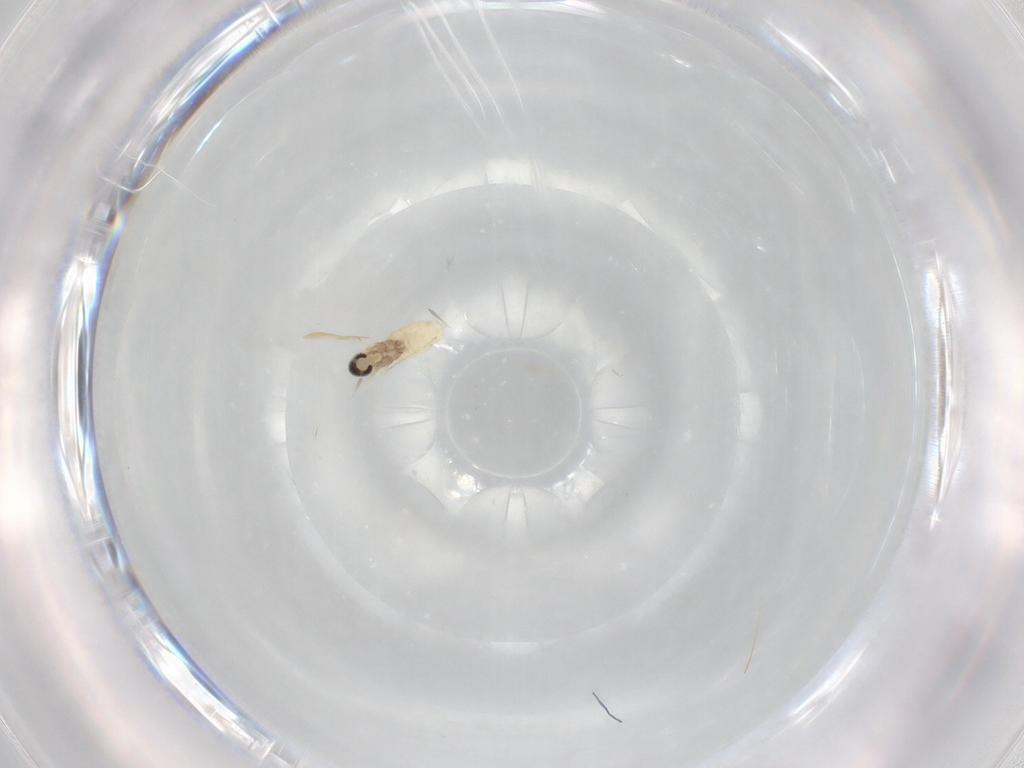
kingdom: Animalia
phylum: Arthropoda
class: Insecta
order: Diptera
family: Cecidomyiidae
